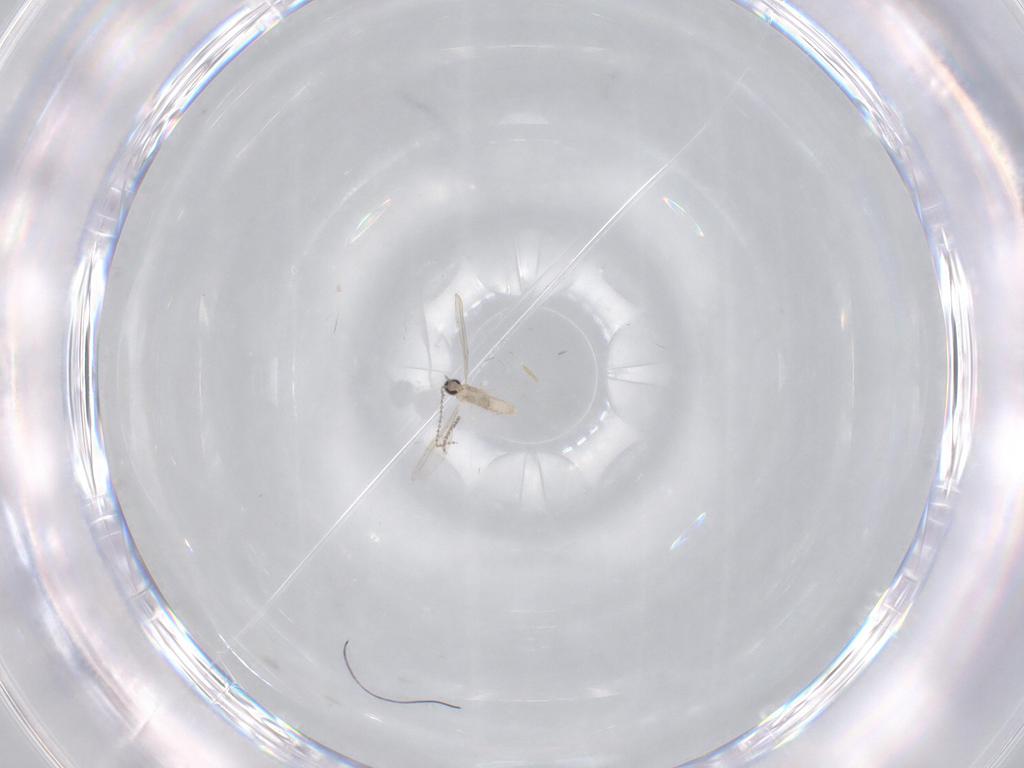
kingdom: Animalia
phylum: Arthropoda
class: Insecta
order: Diptera
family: Cecidomyiidae
